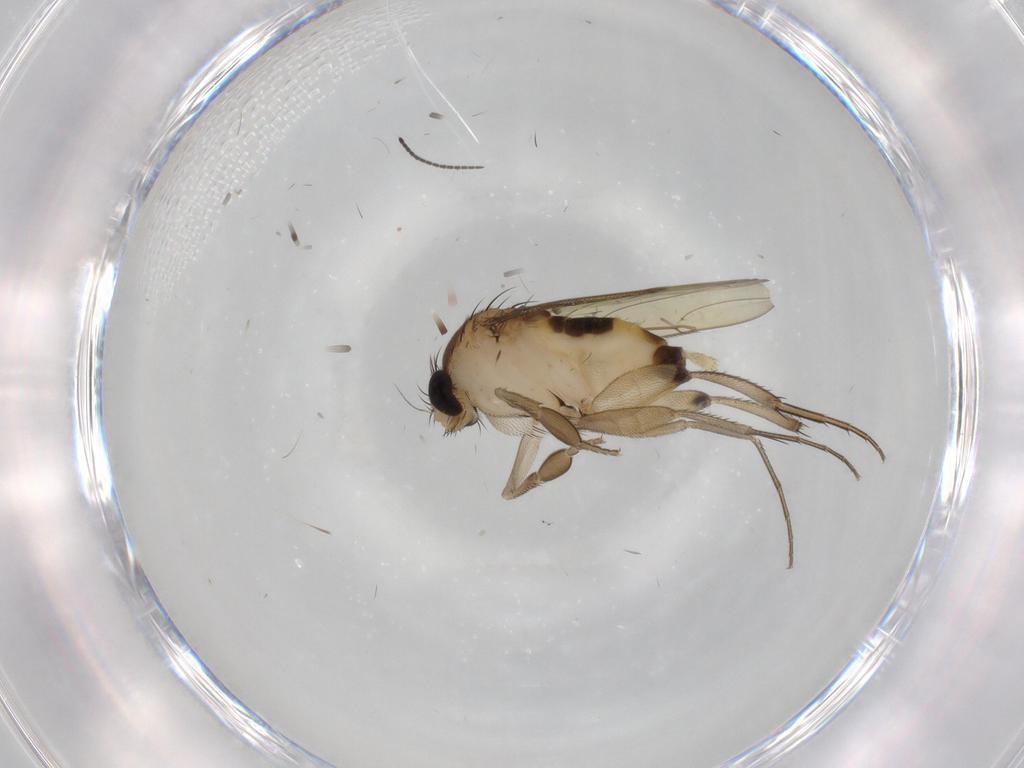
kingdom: Animalia
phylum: Arthropoda
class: Insecta
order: Diptera
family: Phoridae
